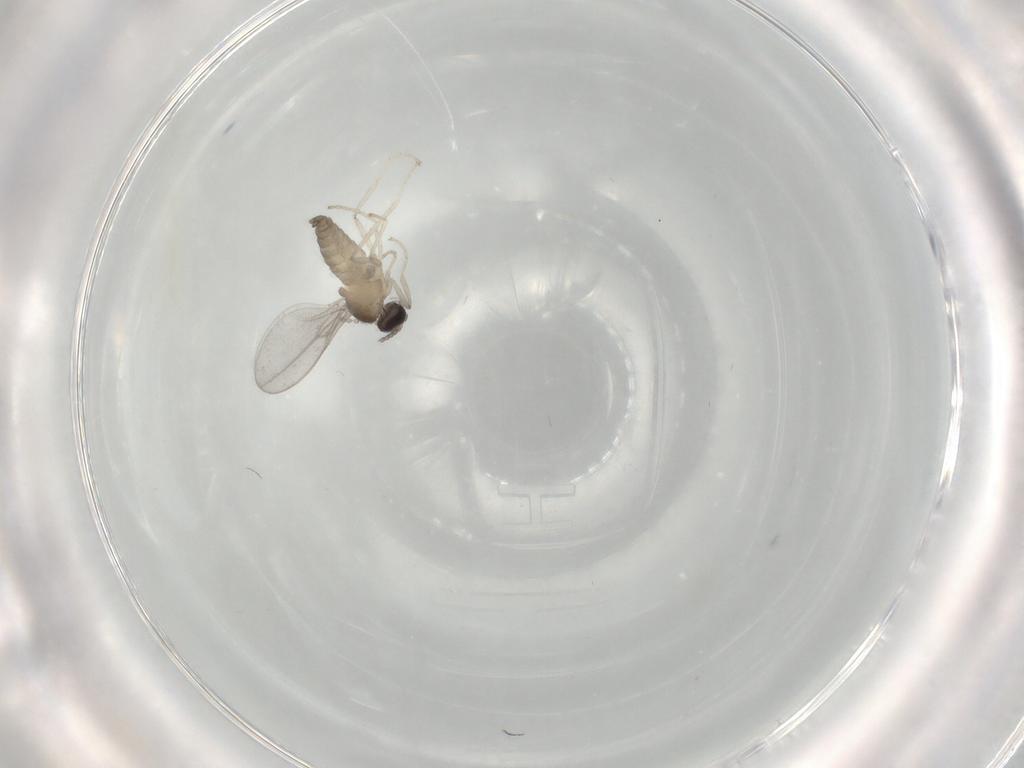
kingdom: Animalia
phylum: Arthropoda
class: Insecta
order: Diptera
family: Cecidomyiidae
